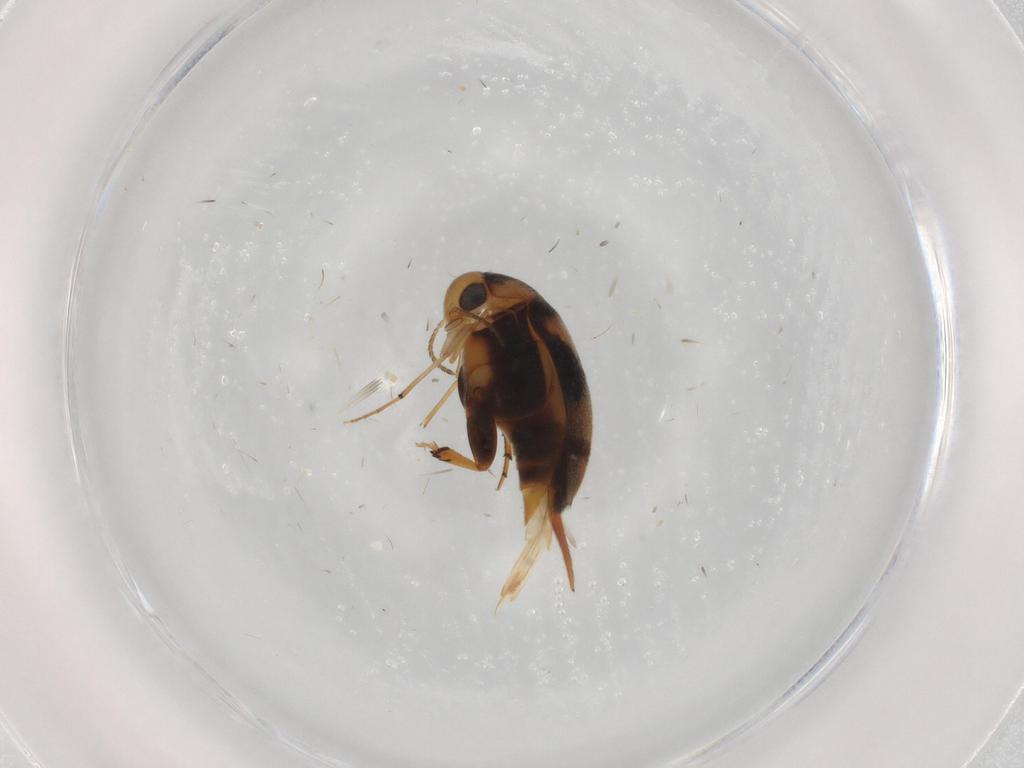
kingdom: Animalia
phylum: Arthropoda
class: Insecta
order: Coleoptera
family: Mordellidae
